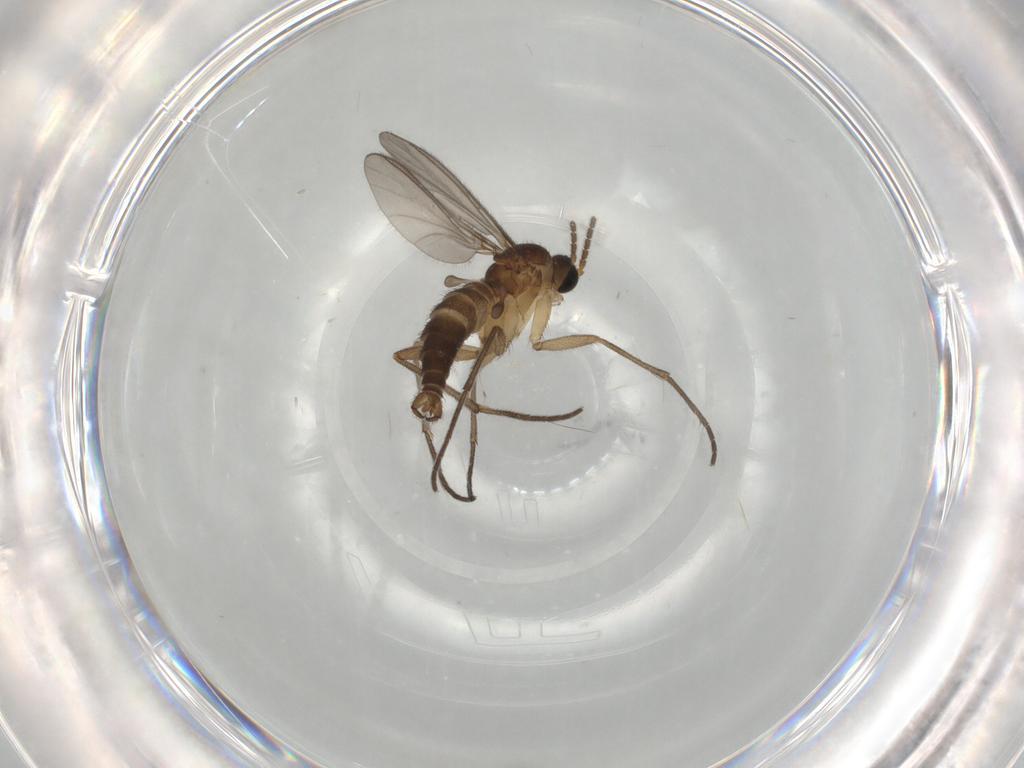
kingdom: Animalia
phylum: Arthropoda
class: Insecta
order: Diptera
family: Sciaridae
